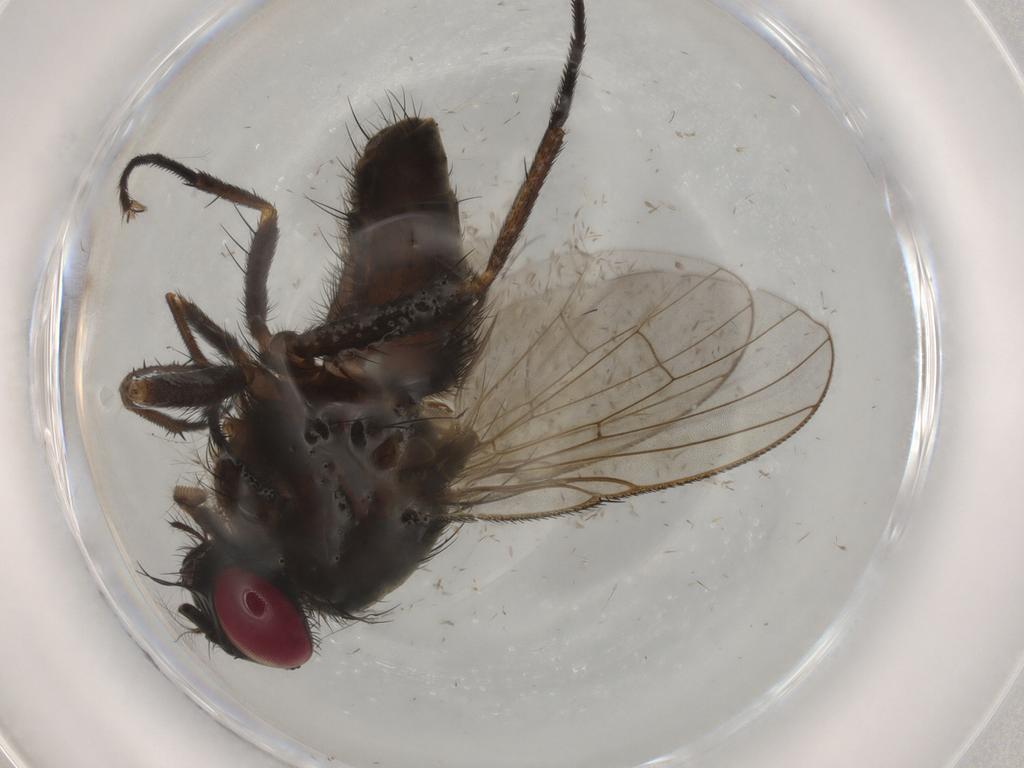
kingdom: Animalia
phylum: Arthropoda
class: Insecta
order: Diptera
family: Muscidae
